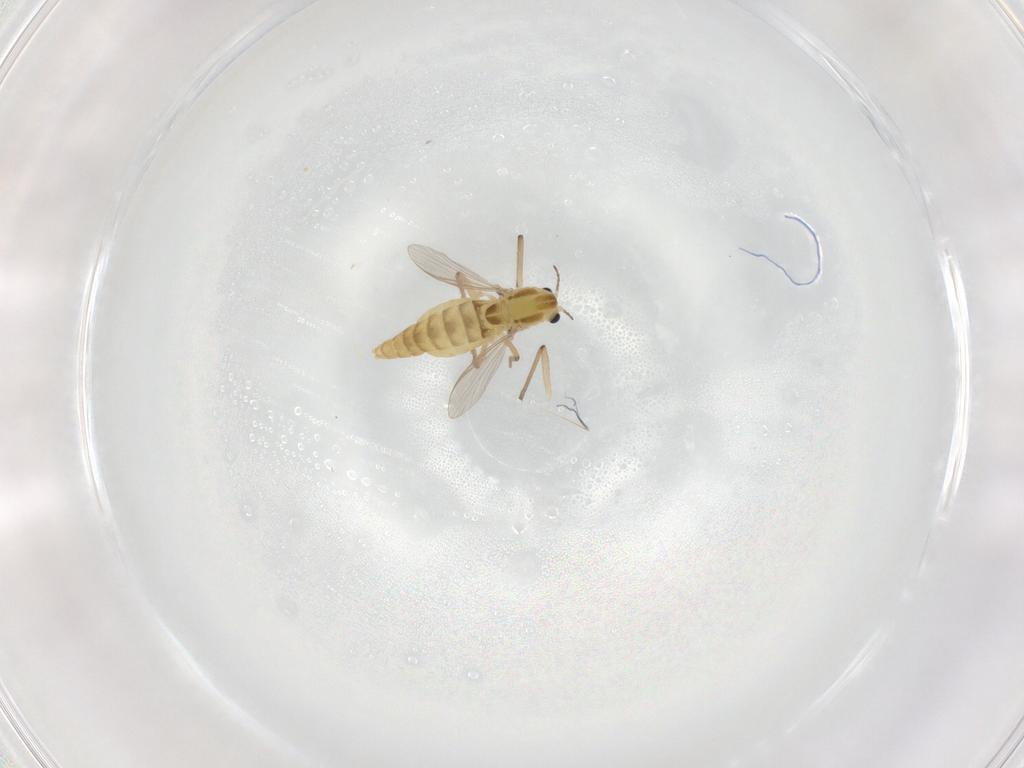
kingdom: Animalia
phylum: Arthropoda
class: Insecta
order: Diptera
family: Chironomidae
